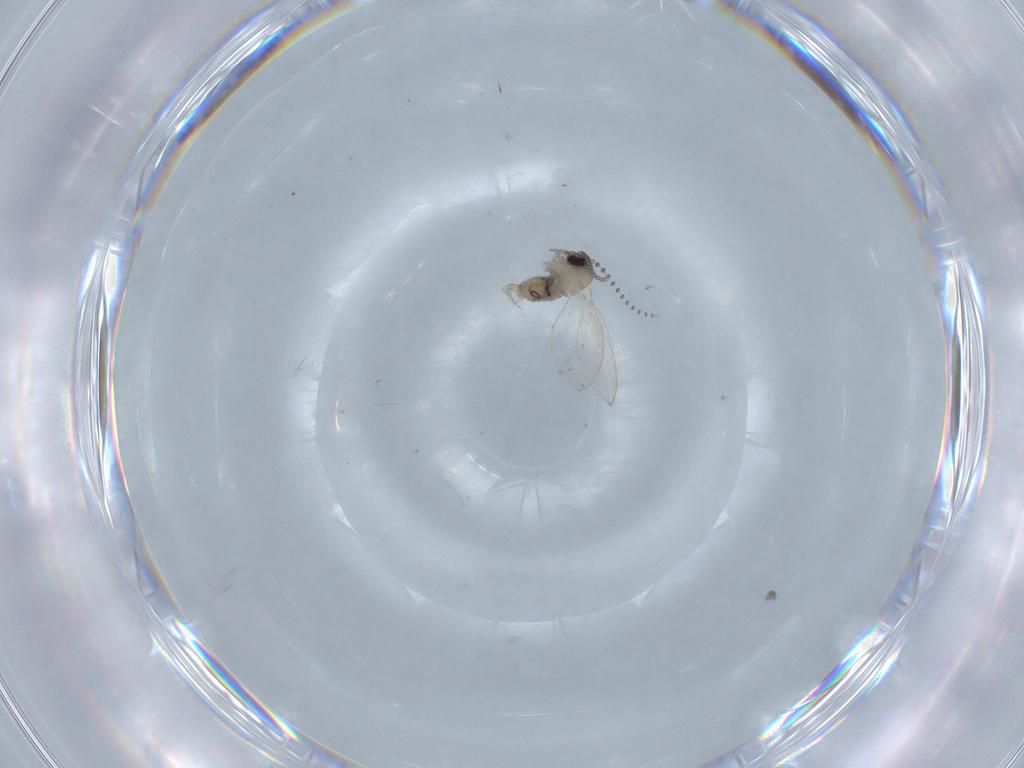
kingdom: Animalia
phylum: Arthropoda
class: Insecta
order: Diptera
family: Psychodidae
